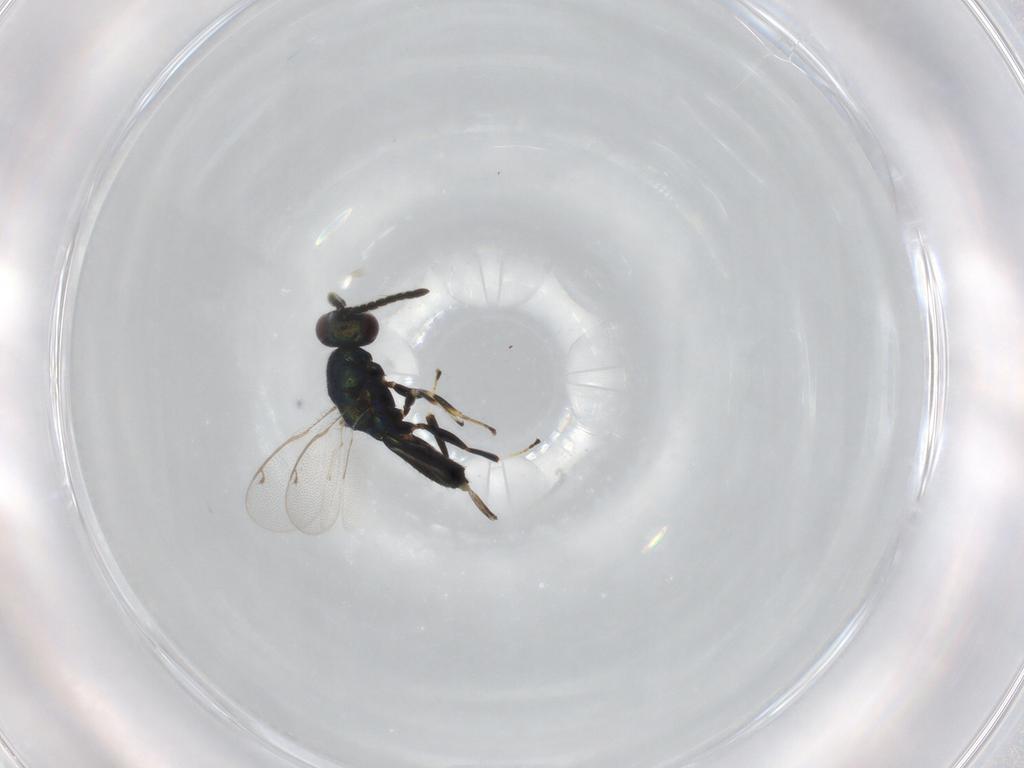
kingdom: Animalia
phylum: Arthropoda
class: Insecta
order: Hymenoptera
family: Eupelmidae
